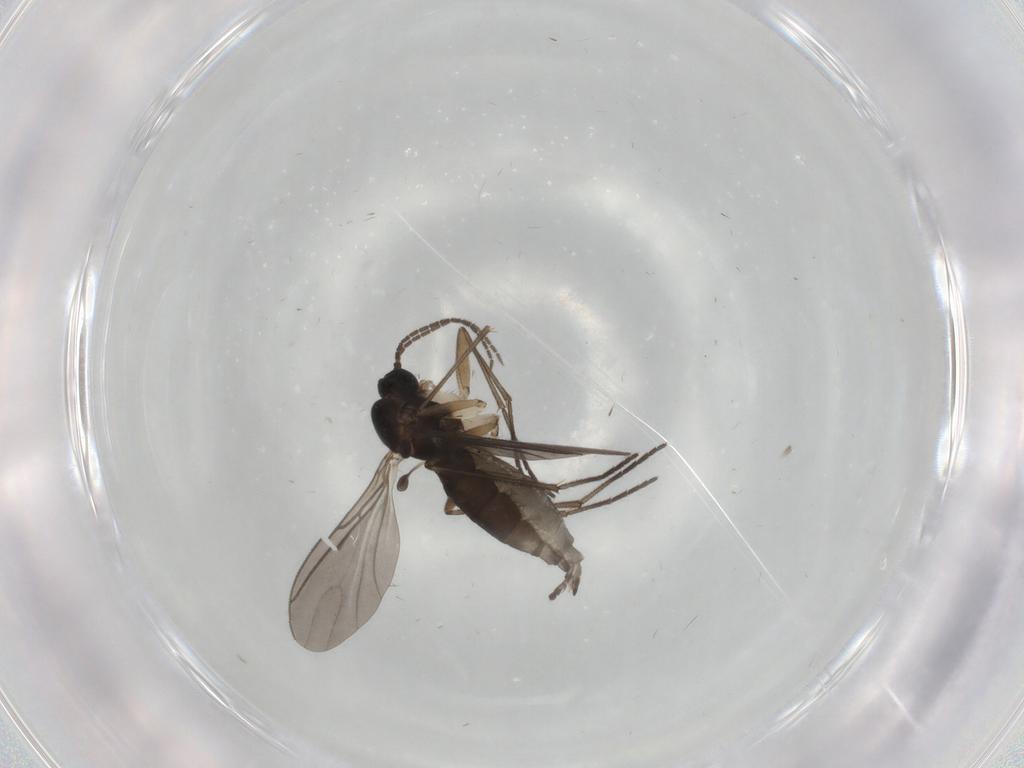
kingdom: Animalia
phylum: Arthropoda
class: Insecta
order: Diptera
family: Sciaridae
